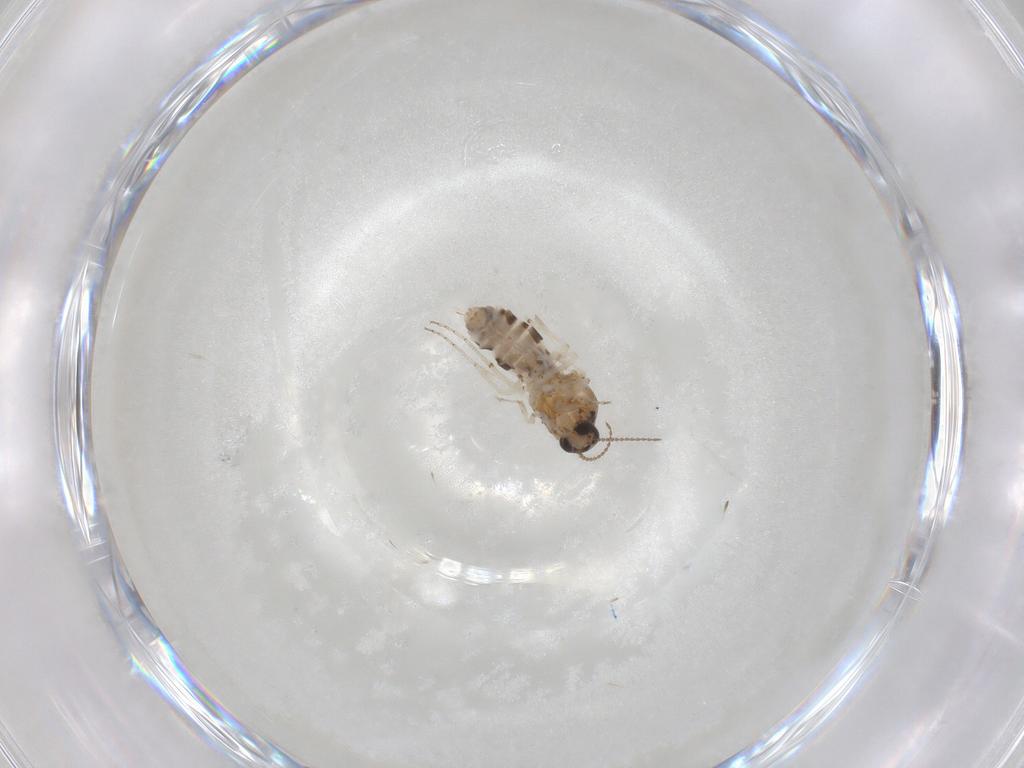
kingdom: Animalia
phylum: Arthropoda
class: Insecta
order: Diptera
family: Ceratopogonidae
